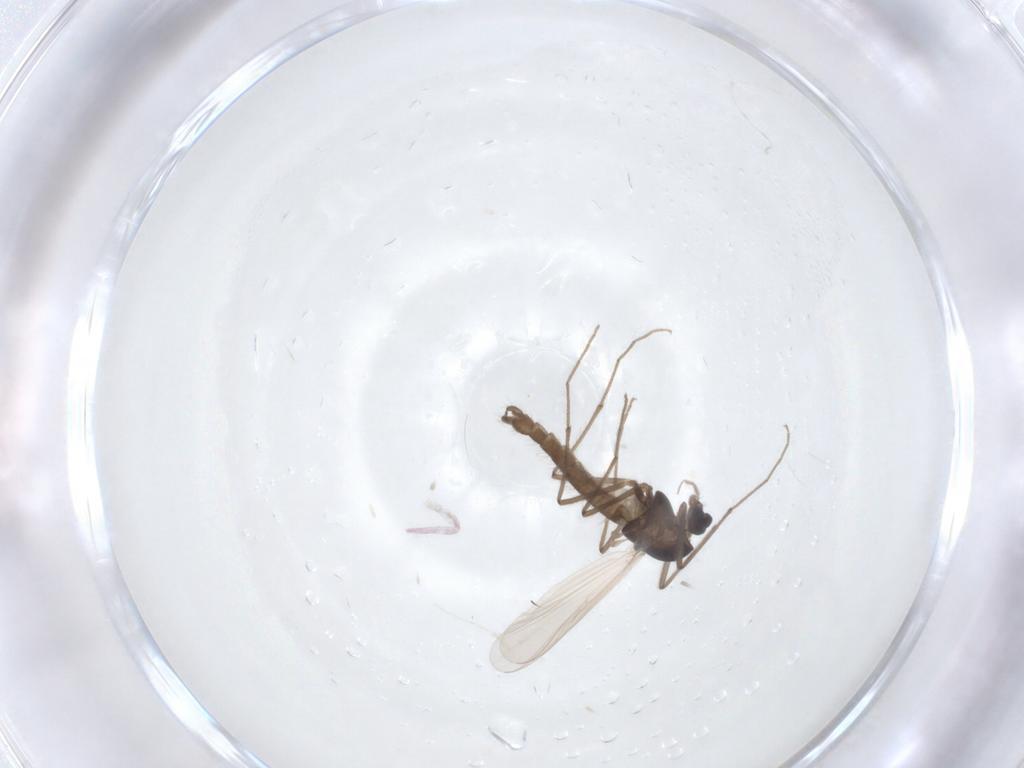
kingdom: Animalia
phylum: Arthropoda
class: Insecta
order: Diptera
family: Chironomidae
